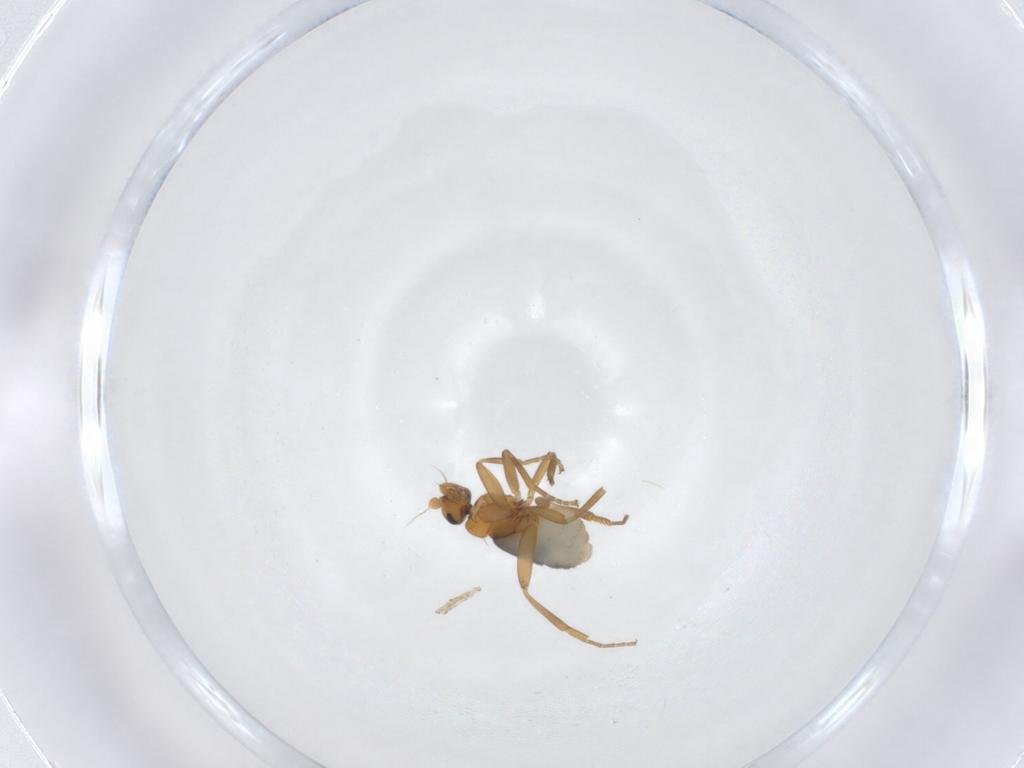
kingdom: Animalia
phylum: Arthropoda
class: Insecta
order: Diptera
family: Phoridae
